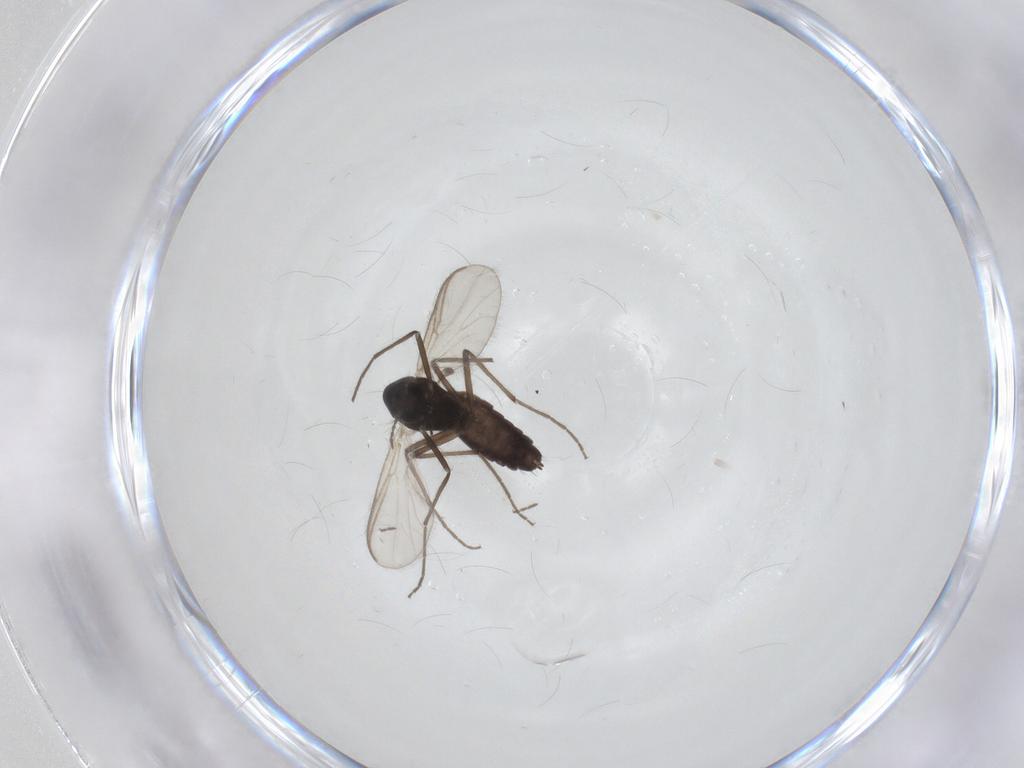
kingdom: Animalia
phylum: Arthropoda
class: Insecta
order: Diptera
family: Chironomidae
